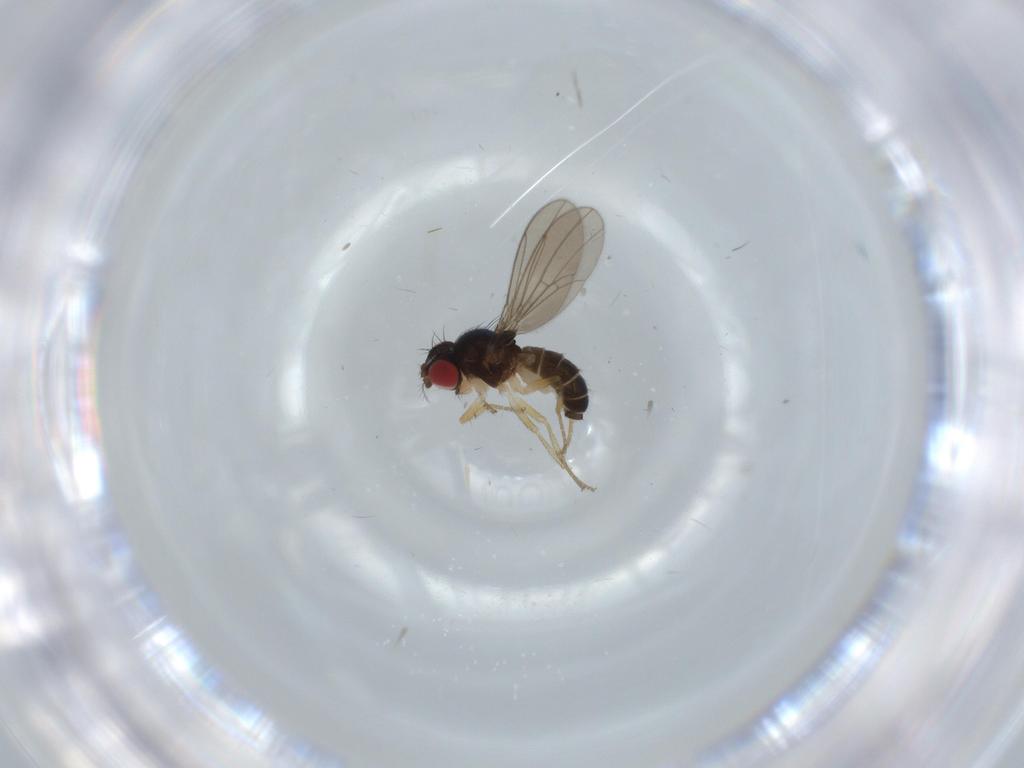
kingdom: Animalia
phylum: Arthropoda
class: Insecta
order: Diptera
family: Drosophilidae
